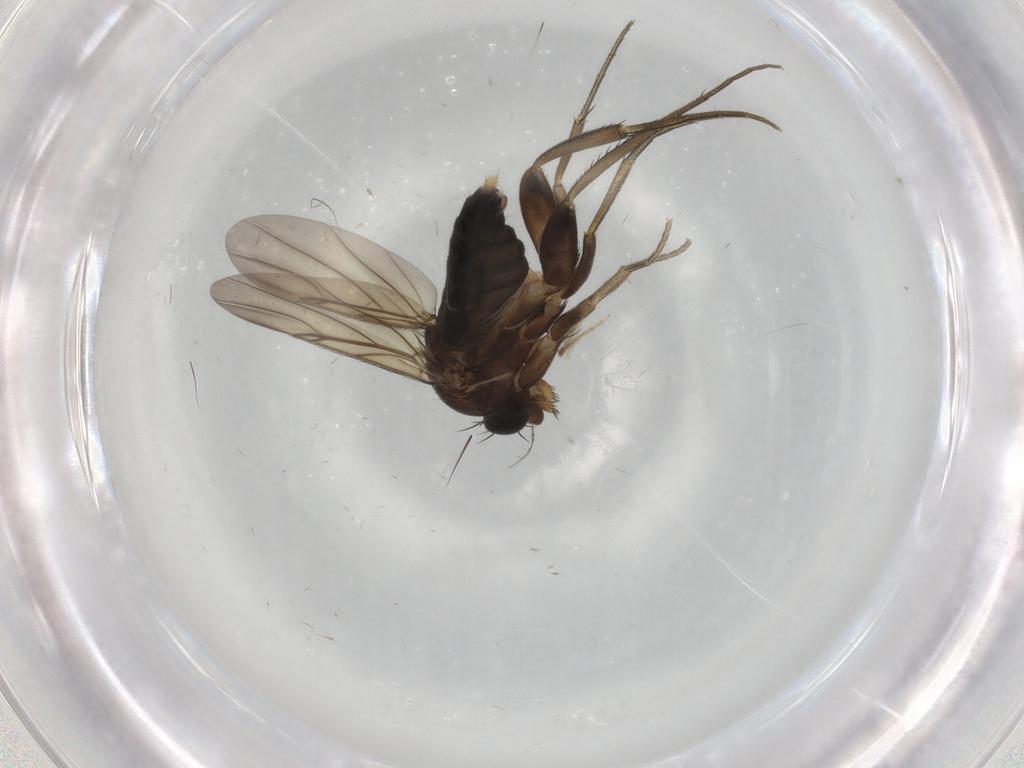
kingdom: Animalia
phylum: Arthropoda
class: Insecta
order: Diptera
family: Phoridae
